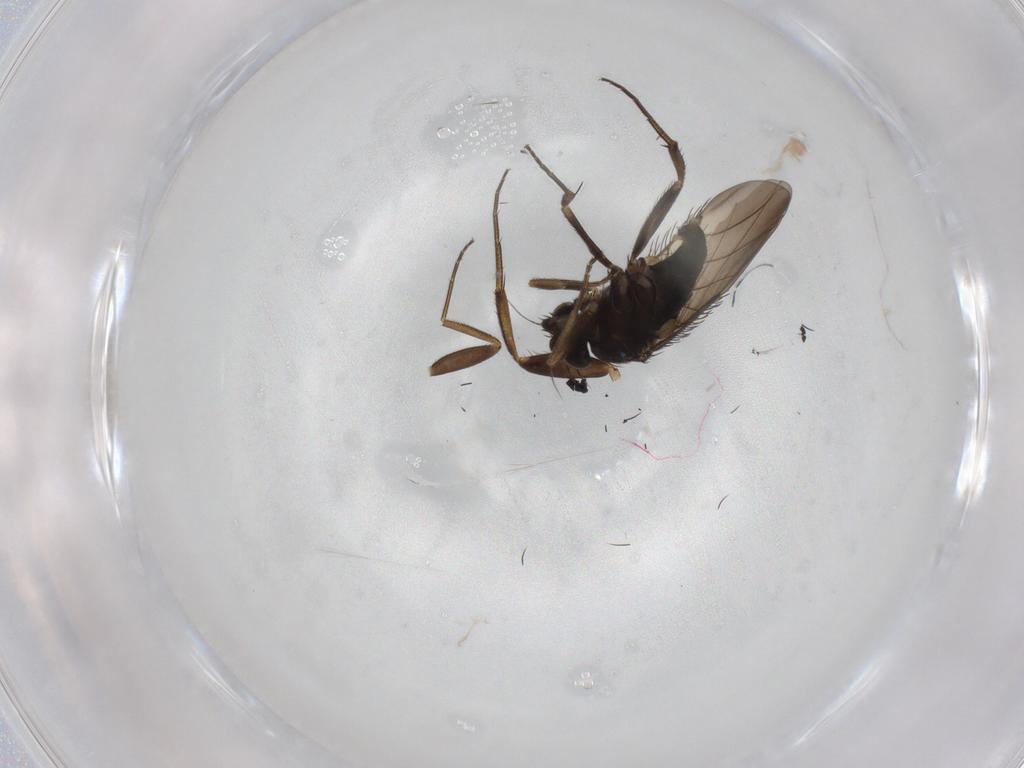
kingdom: Animalia
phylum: Arthropoda
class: Insecta
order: Diptera
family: Phoridae
